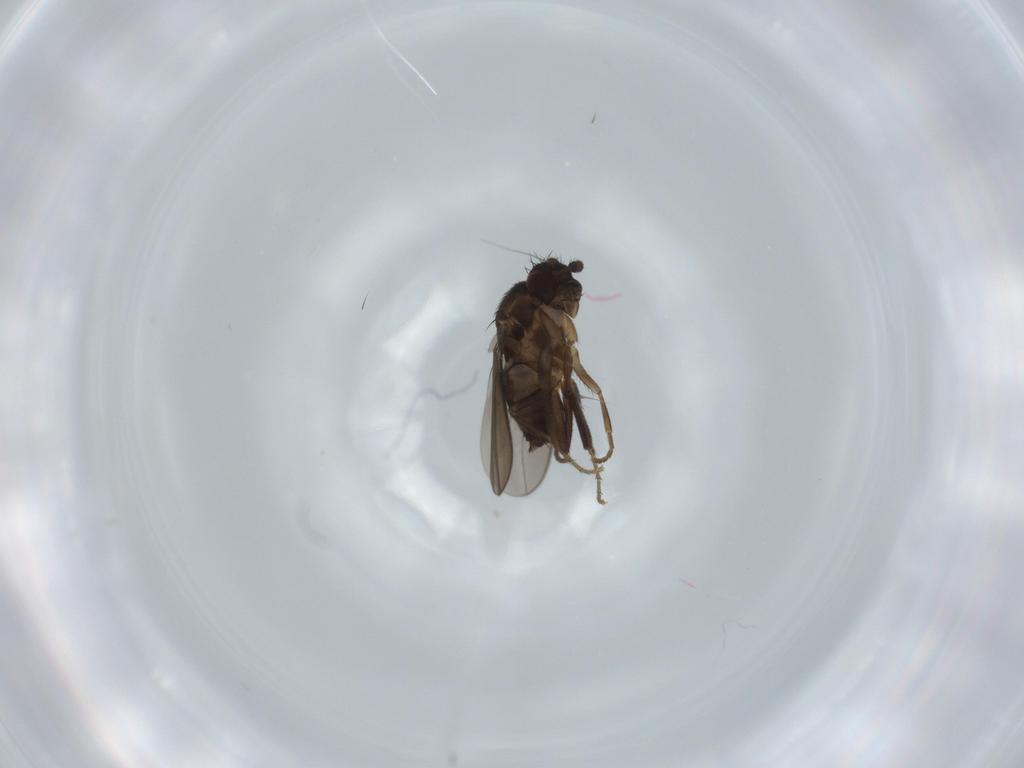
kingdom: Animalia
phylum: Arthropoda
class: Insecta
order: Diptera
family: Sphaeroceridae
